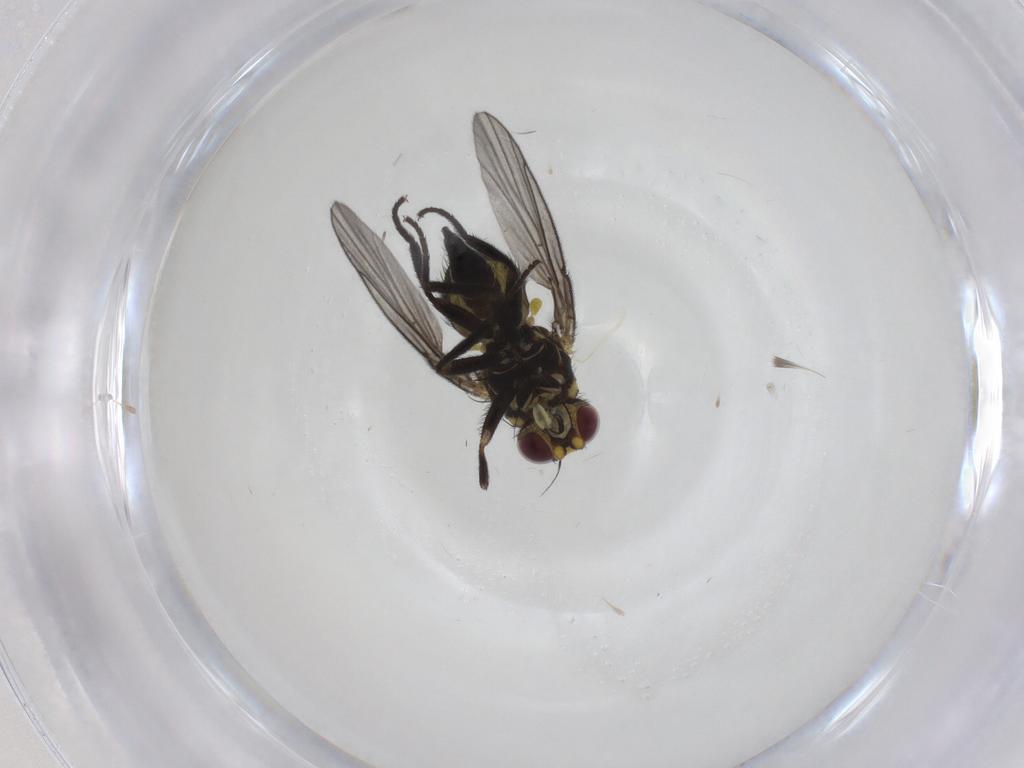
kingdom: Animalia
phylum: Arthropoda
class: Insecta
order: Diptera
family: Agromyzidae
